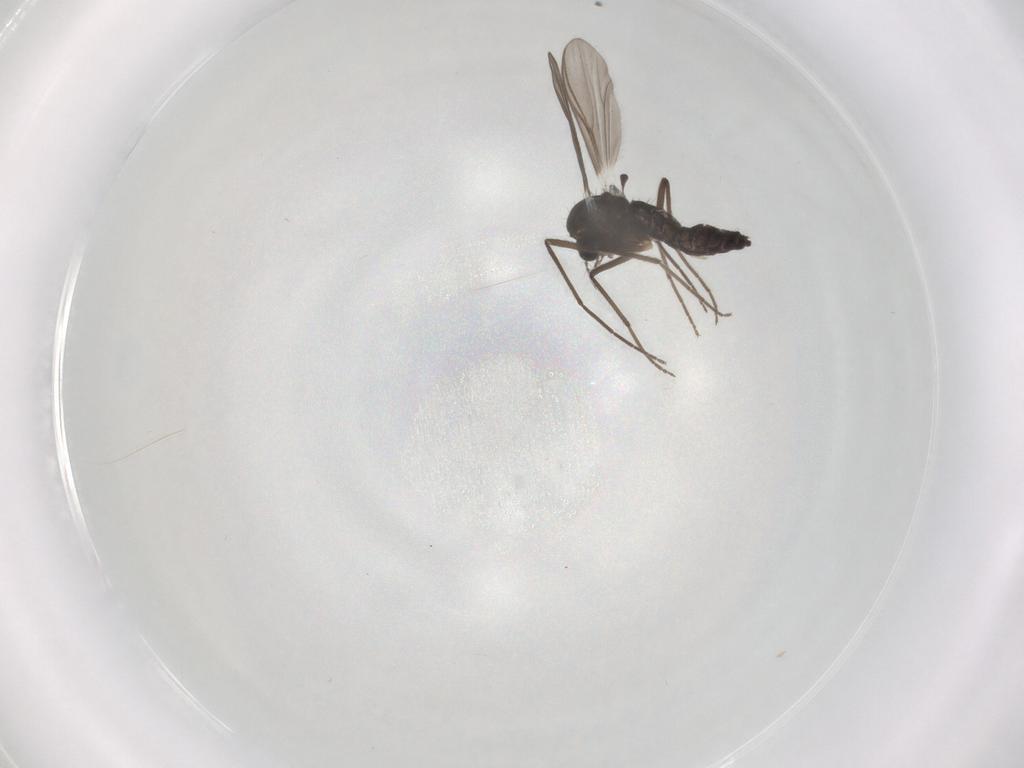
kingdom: Animalia
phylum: Arthropoda
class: Insecta
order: Diptera
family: Chironomidae
